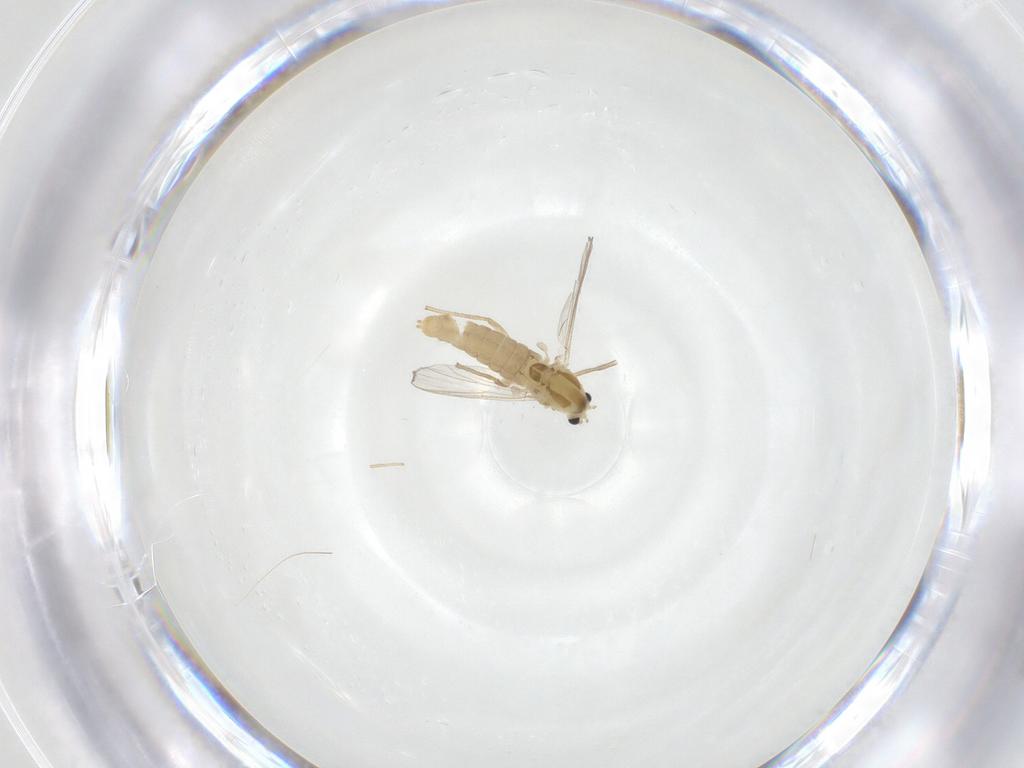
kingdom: Animalia
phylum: Arthropoda
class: Insecta
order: Diptera
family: Chironomidae
